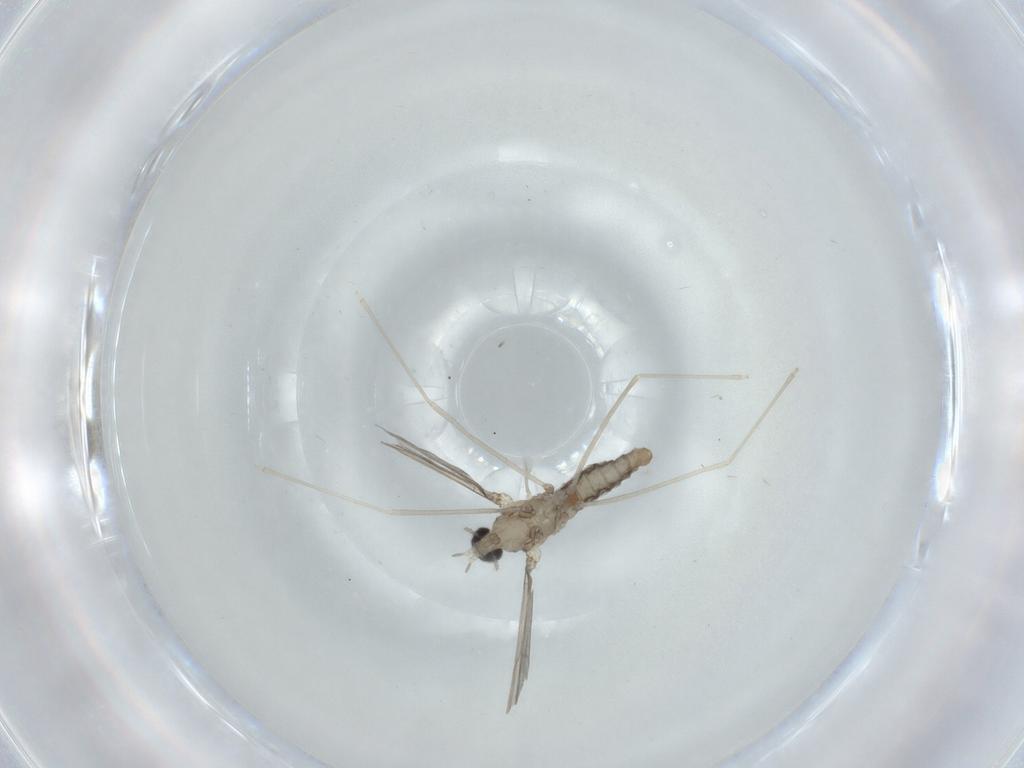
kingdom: Animalia
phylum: Arthropoda
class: Insecta
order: Diptera
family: Cecidomyiidae
